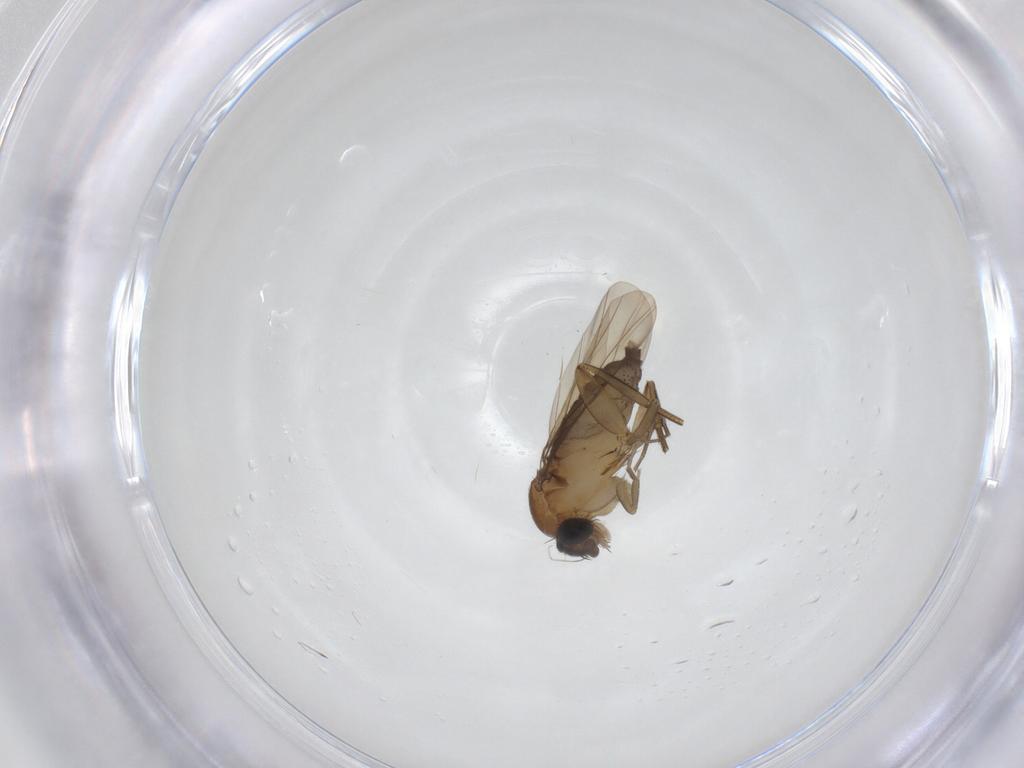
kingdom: Animalia
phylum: Arthropoda
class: Insecta
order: Diptera
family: Phoridae
